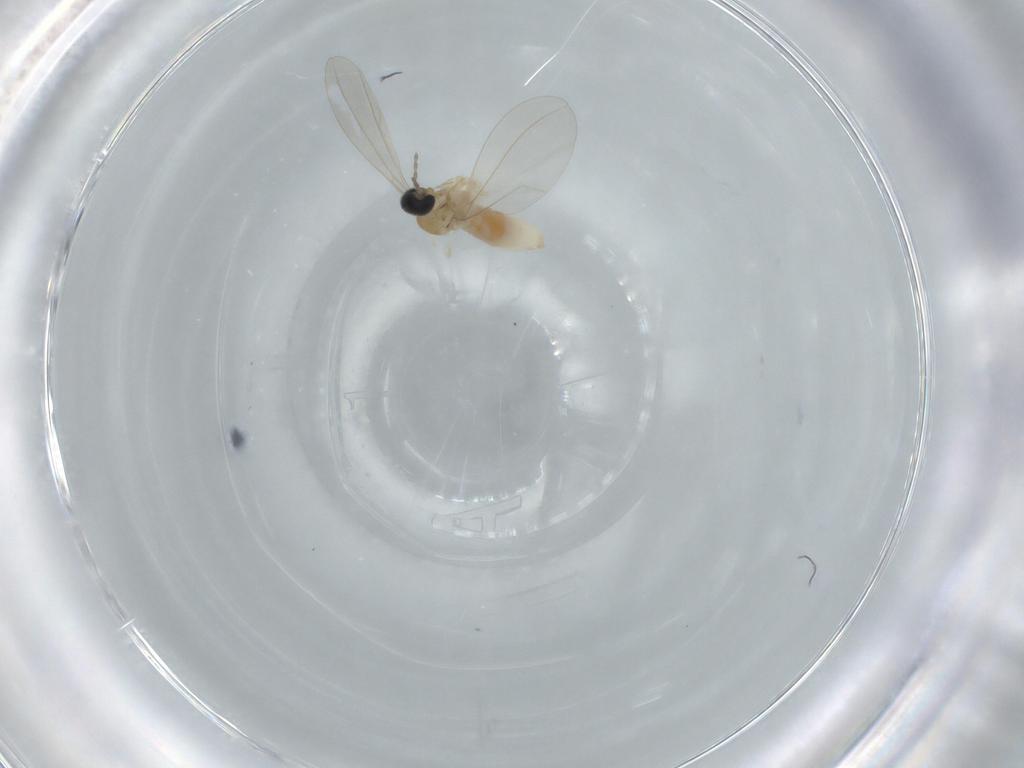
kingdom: Animalia
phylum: Arthropoda
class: Insecta
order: Diptera
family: Cecidomyiidae
